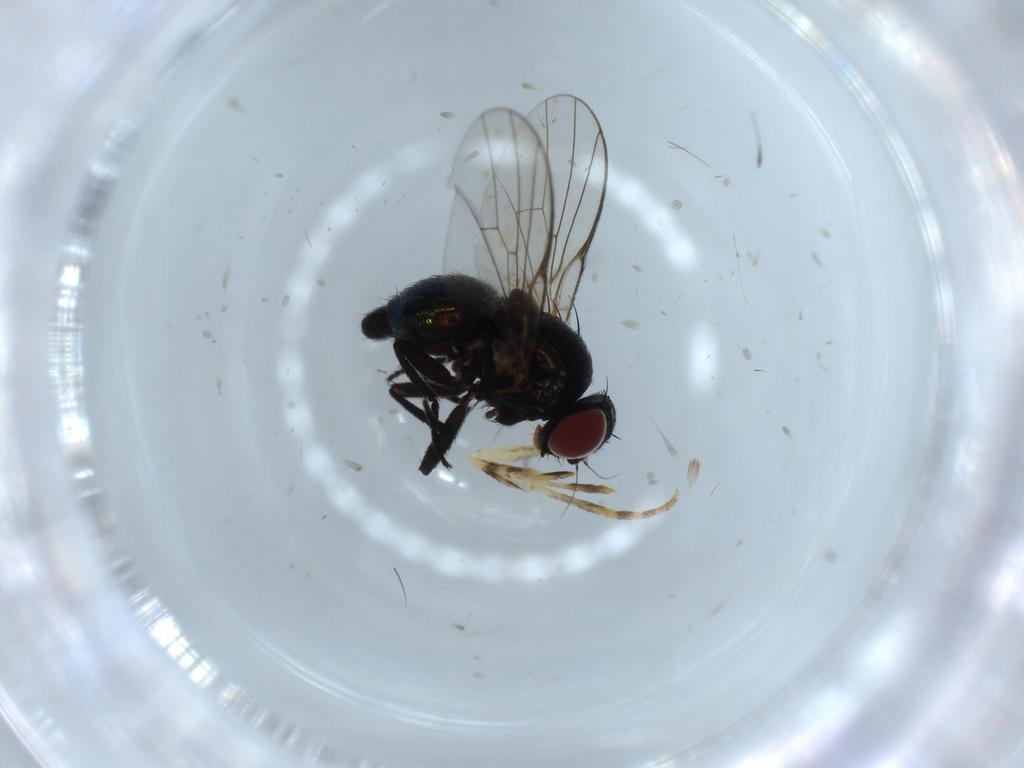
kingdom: Animalia
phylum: Arthropoda
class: Insecta
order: Diptera
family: Agromyzidae
